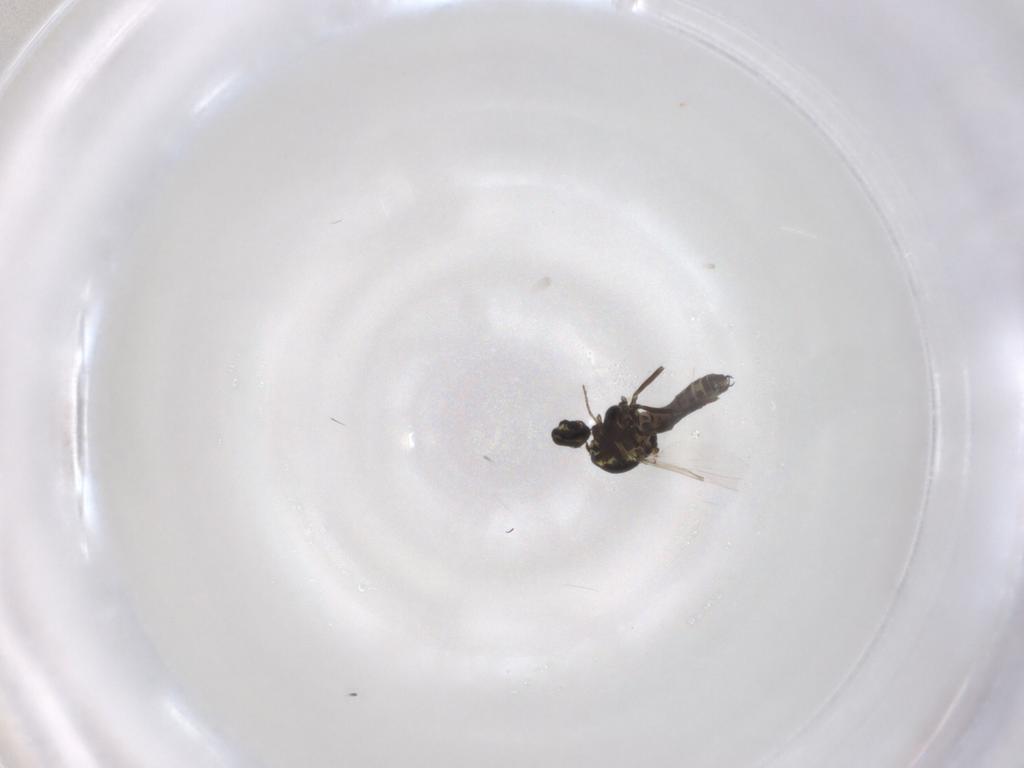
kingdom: Animalia
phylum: Arthropoda
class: Insecta
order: Diptera
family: Ceratopogonidae
